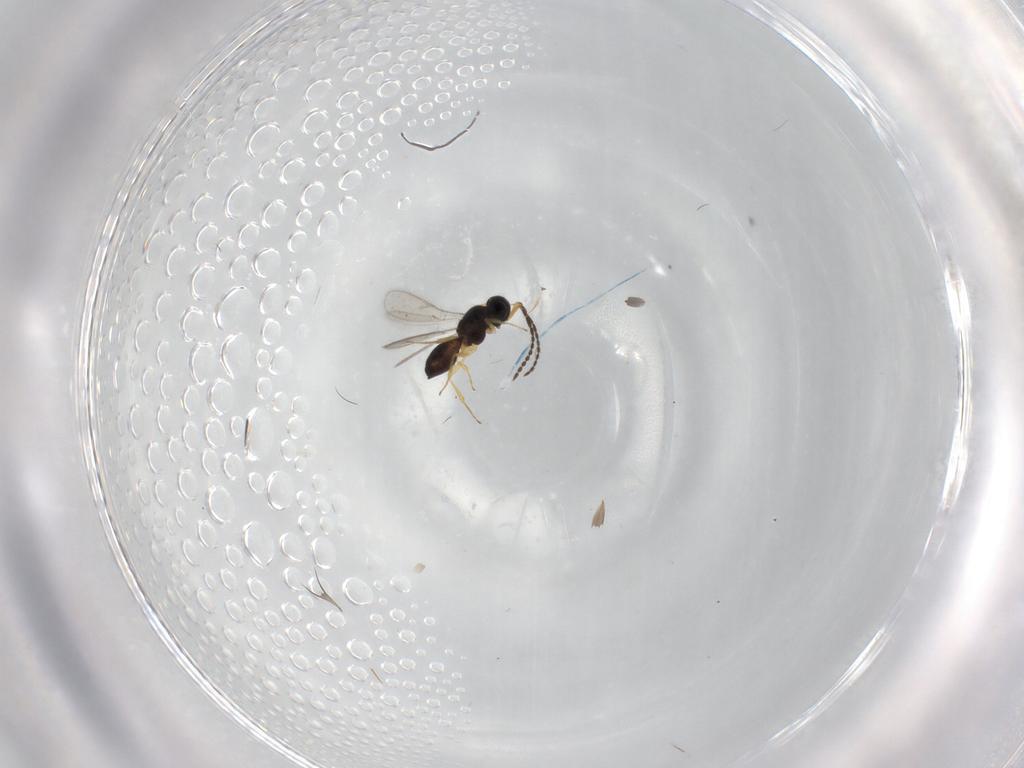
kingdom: Animalia
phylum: Arthropoda
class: Insecta
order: Hymenoptera
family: Scelionidae
